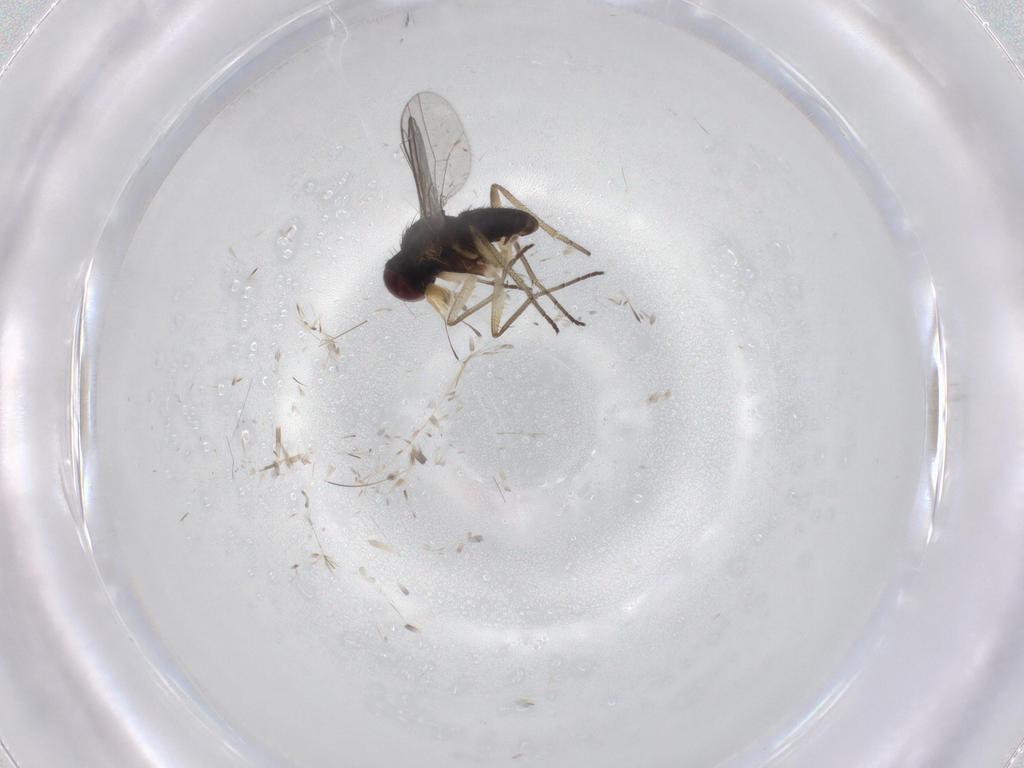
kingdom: Animalia
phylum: Arthropoda
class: Insecta
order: Diptera
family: Dolichopodidae
